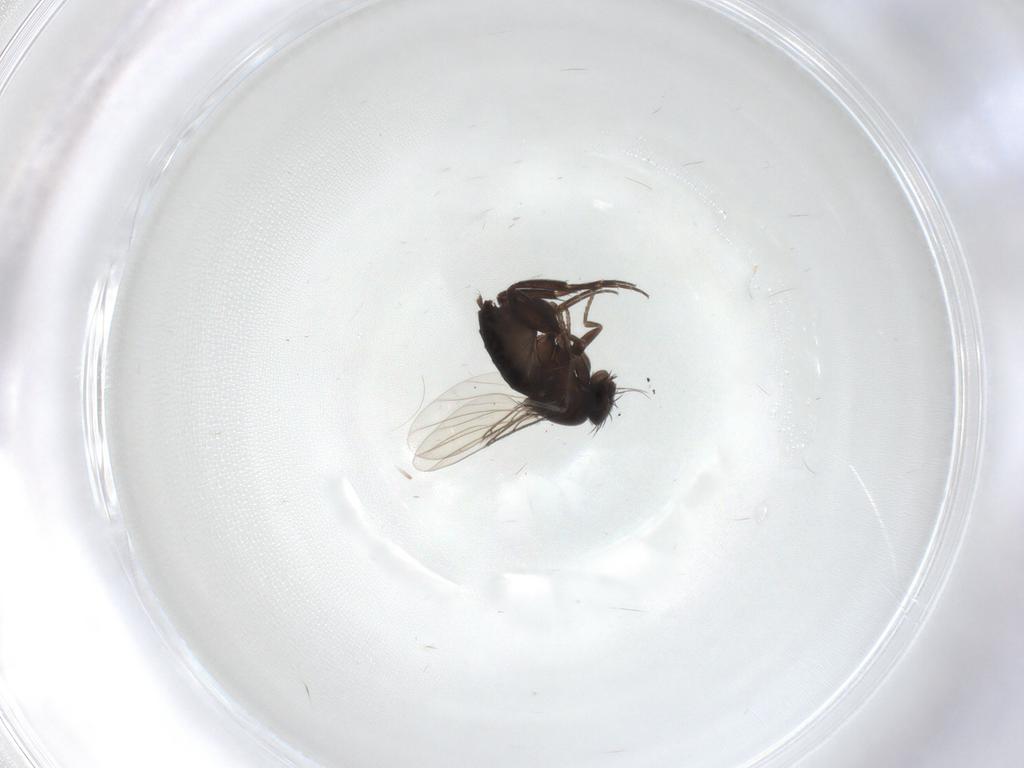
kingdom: Animalia
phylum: Arthropoda
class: Insecta
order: Diptera
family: Phoridae
